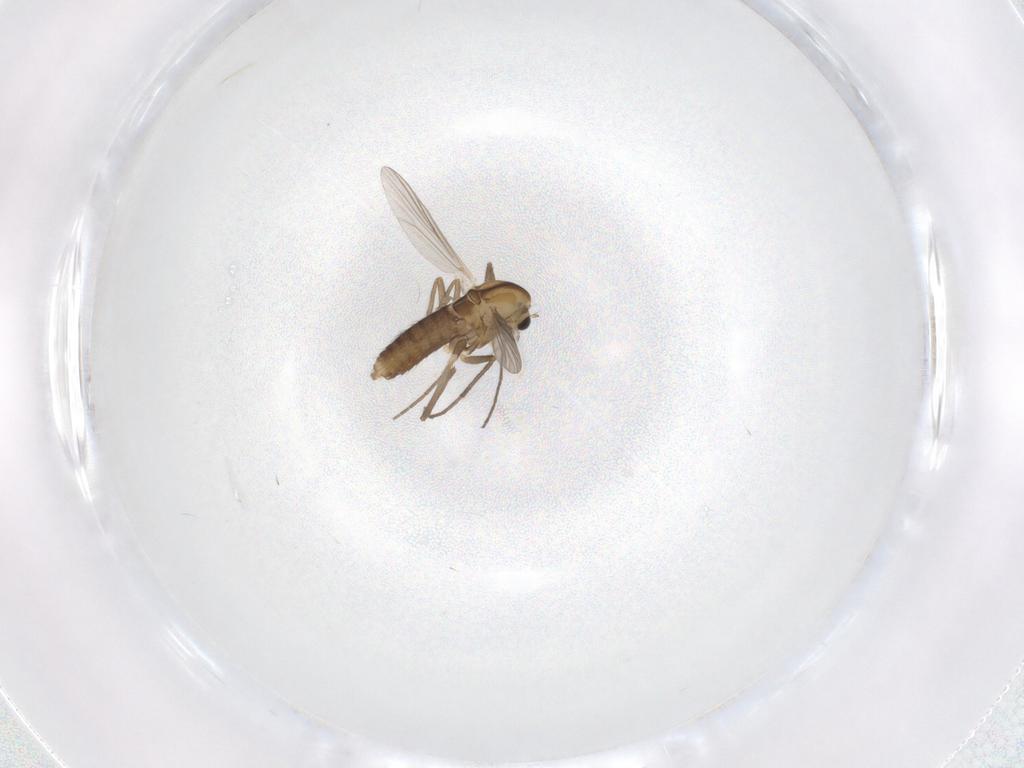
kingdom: Animalia
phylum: Arthropoda
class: Insecta
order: Diptera
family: Chironomidae
